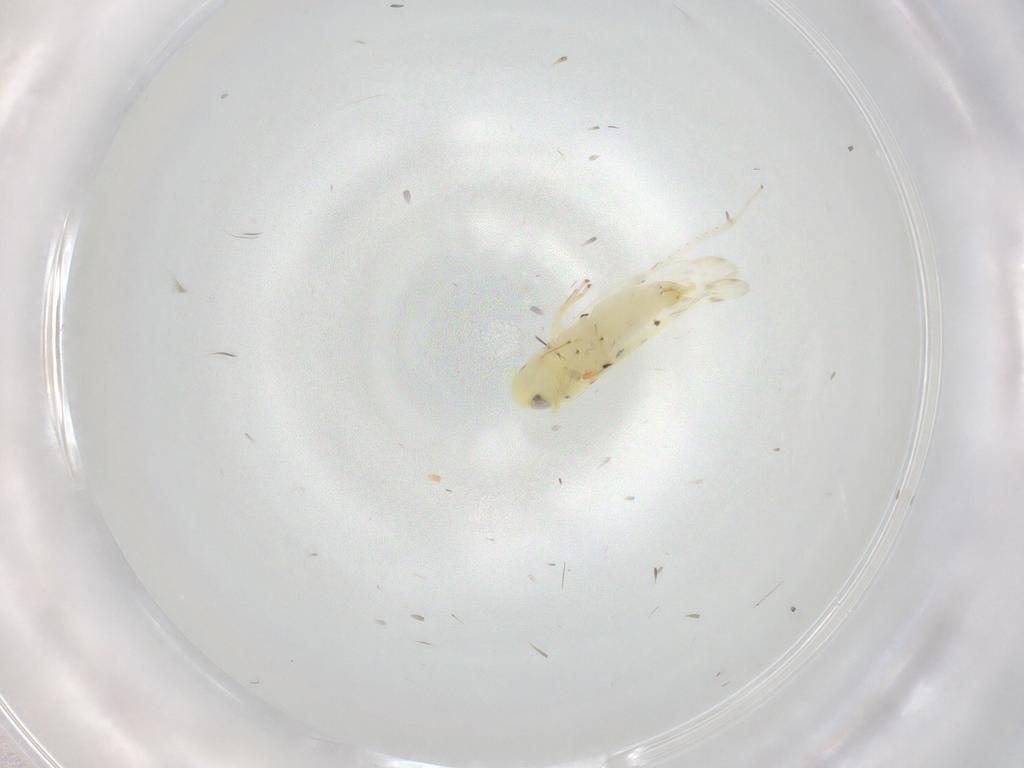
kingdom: Animalia
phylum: Arthropoda
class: Insecta
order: Hemiptera
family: Cicadellidae
